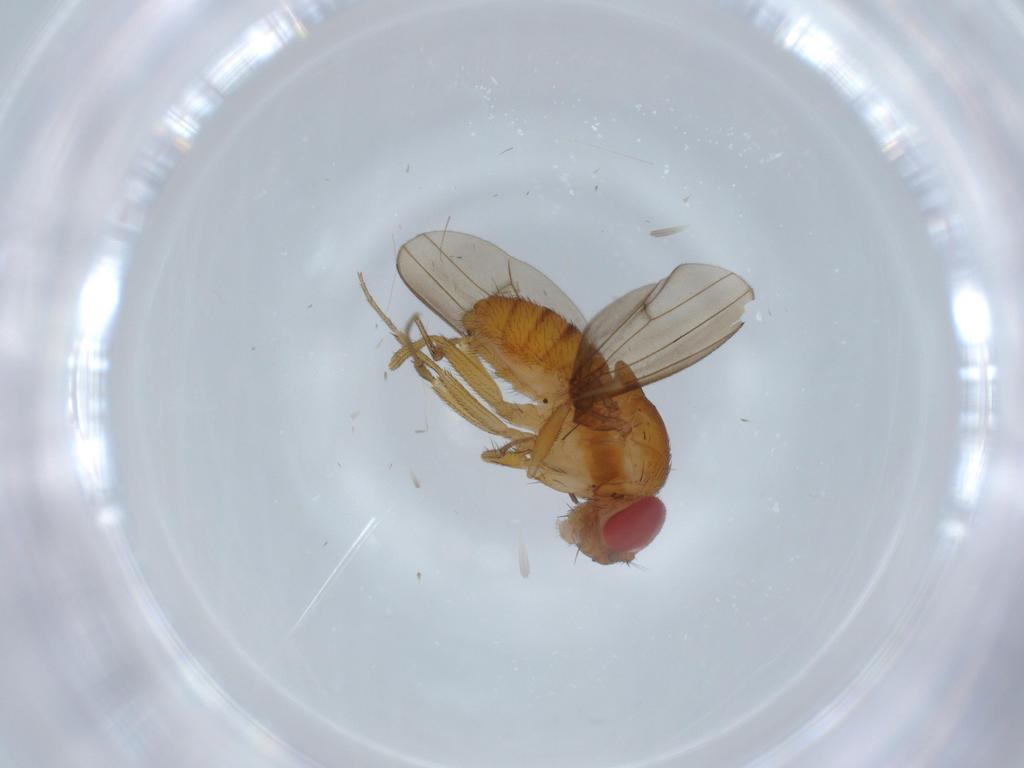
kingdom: Animalia
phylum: Arthropoda
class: Insecta
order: Diptera
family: Drosophilidae
